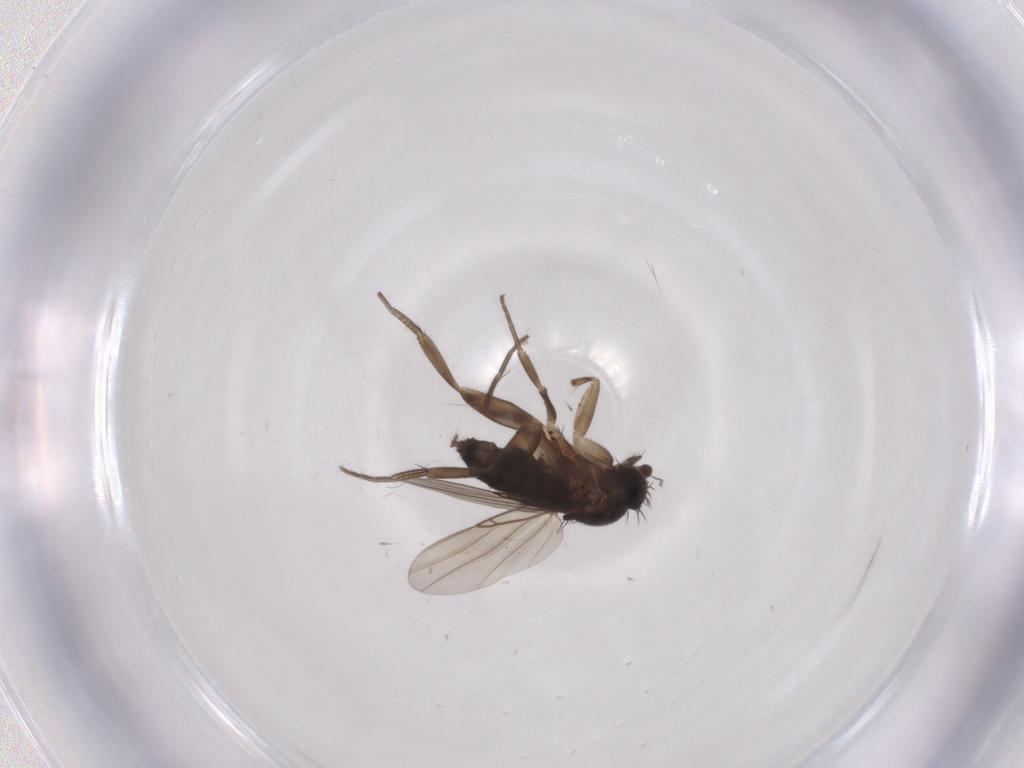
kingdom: Animalia
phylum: Arthropoda
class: Insecta
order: Diptera
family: Phoridae
